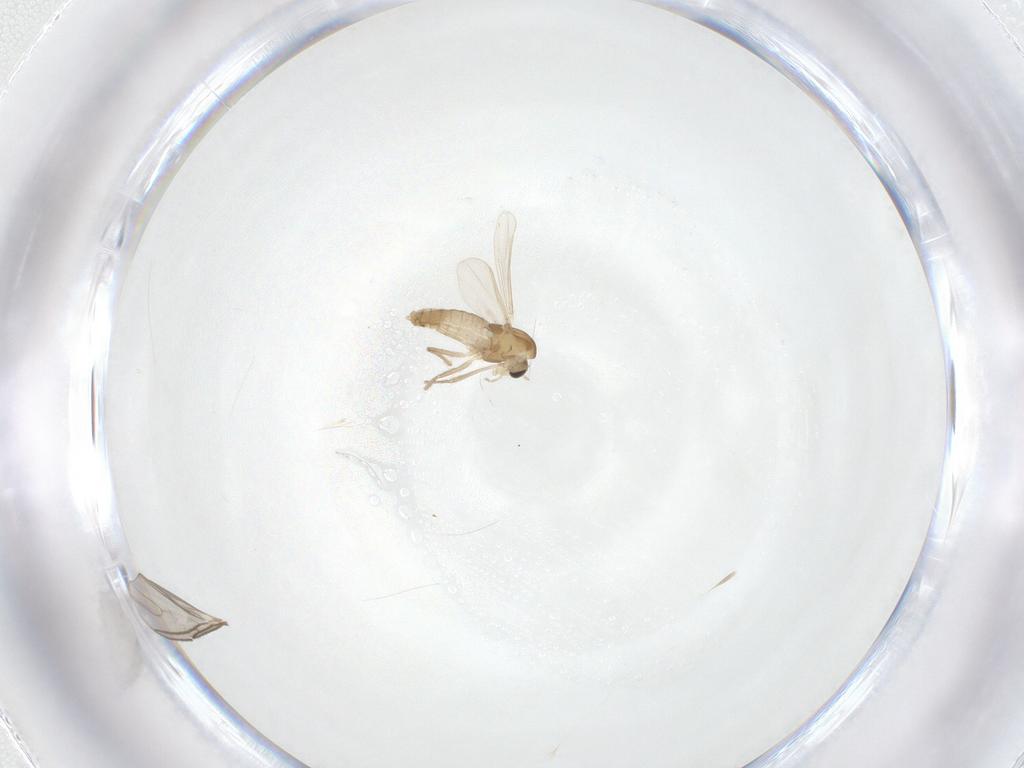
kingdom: Animalia
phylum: Arthropoda
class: Insecta
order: Diptera
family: Chironomidae
